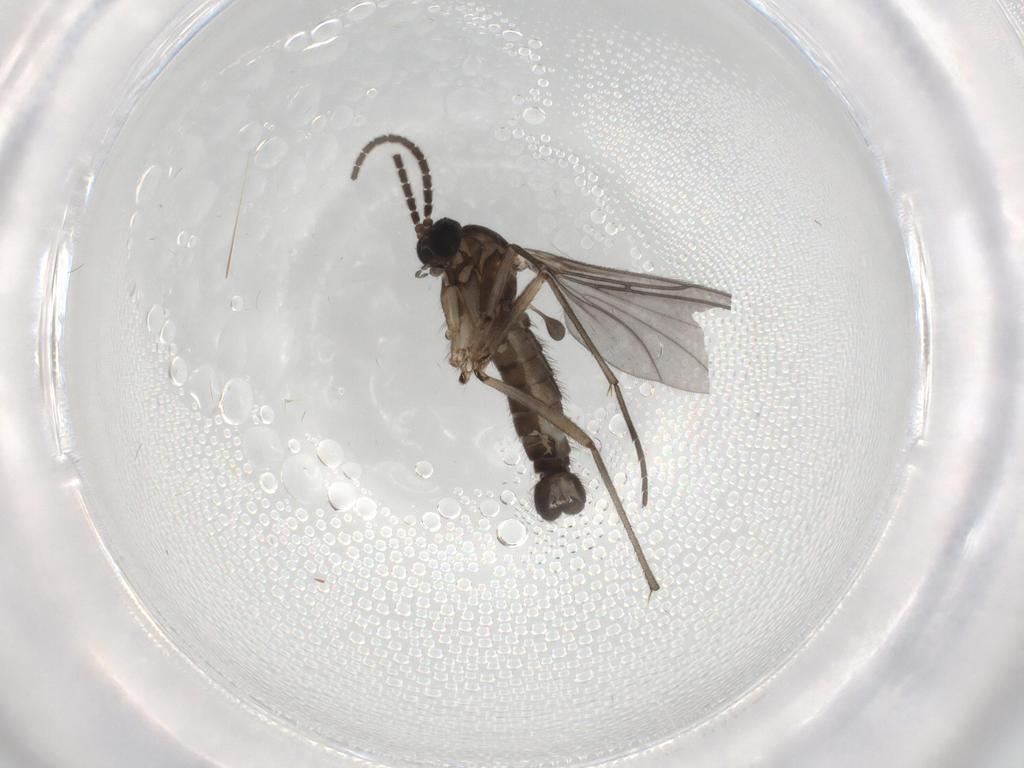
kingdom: Animalia
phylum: Arthropoda
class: Insecta
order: Diptera
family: Sciaridae
